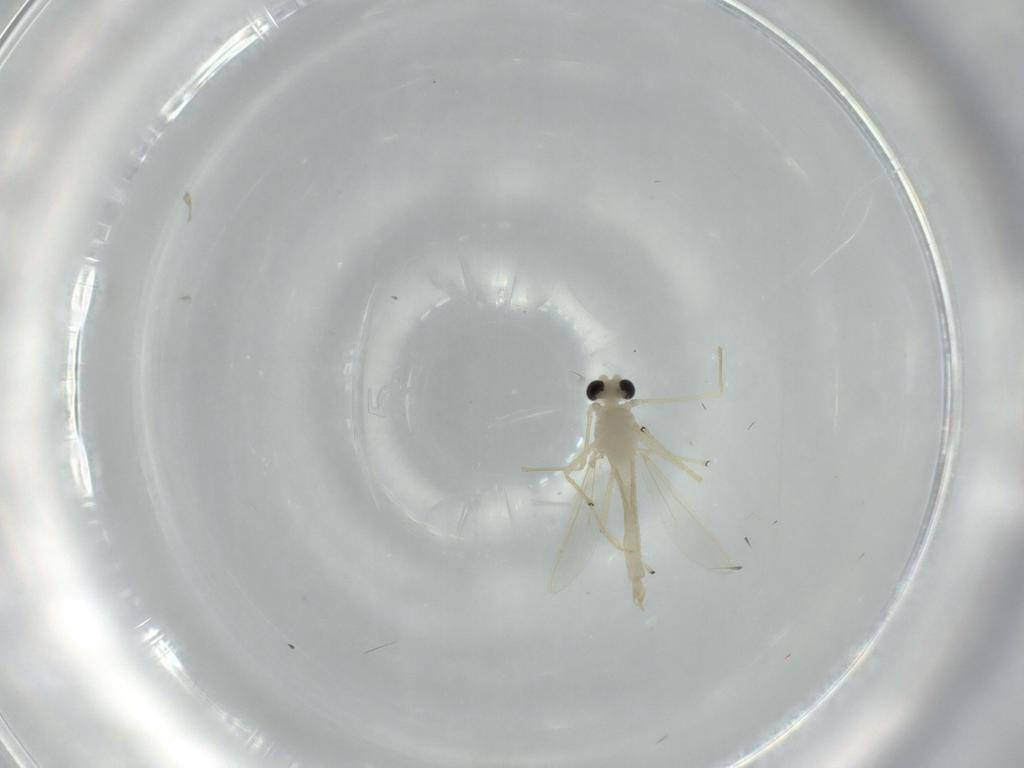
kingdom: Animalia
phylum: Arthropoda
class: Insecta
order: Diptera
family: Chironomidae
